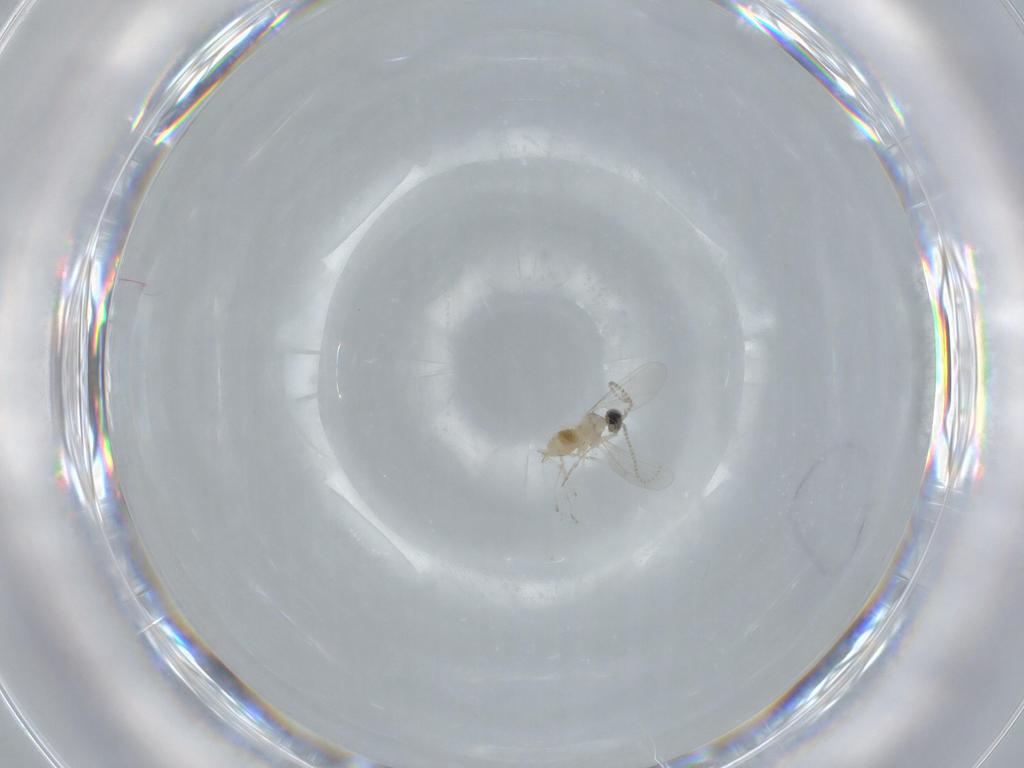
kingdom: Animalia
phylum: Arthropoda
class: Insecta
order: Diptera
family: Cecidomyiidae
